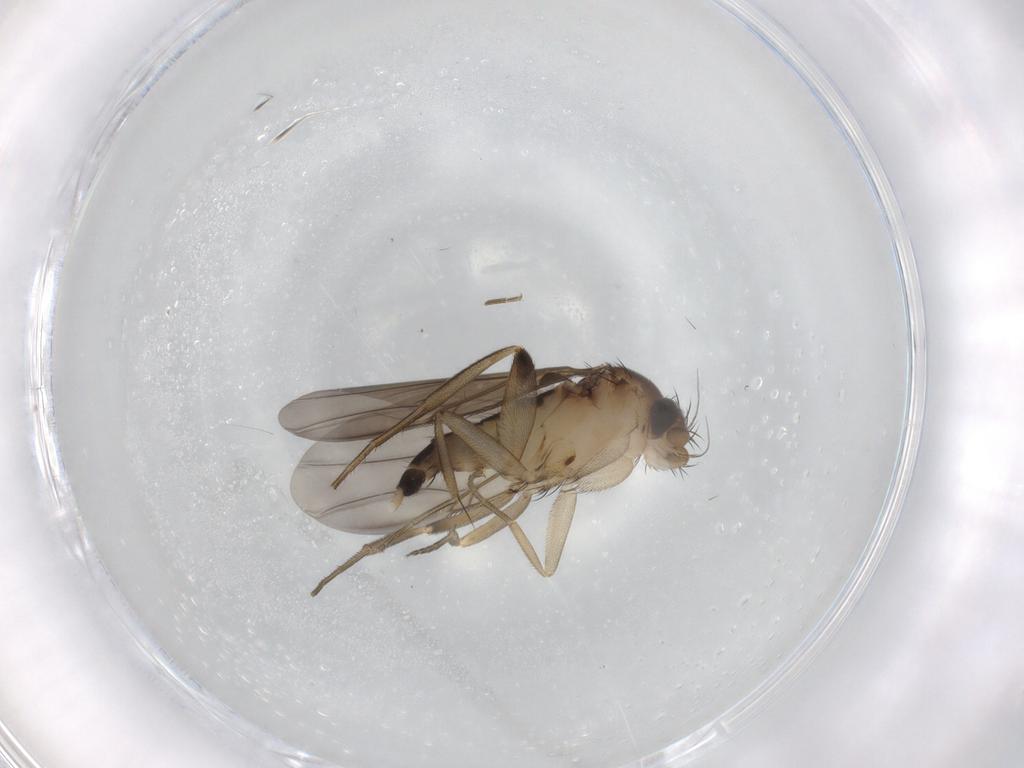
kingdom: Animalia
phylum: Arthropoda
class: Insecta
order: Diptera
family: Phoridae
